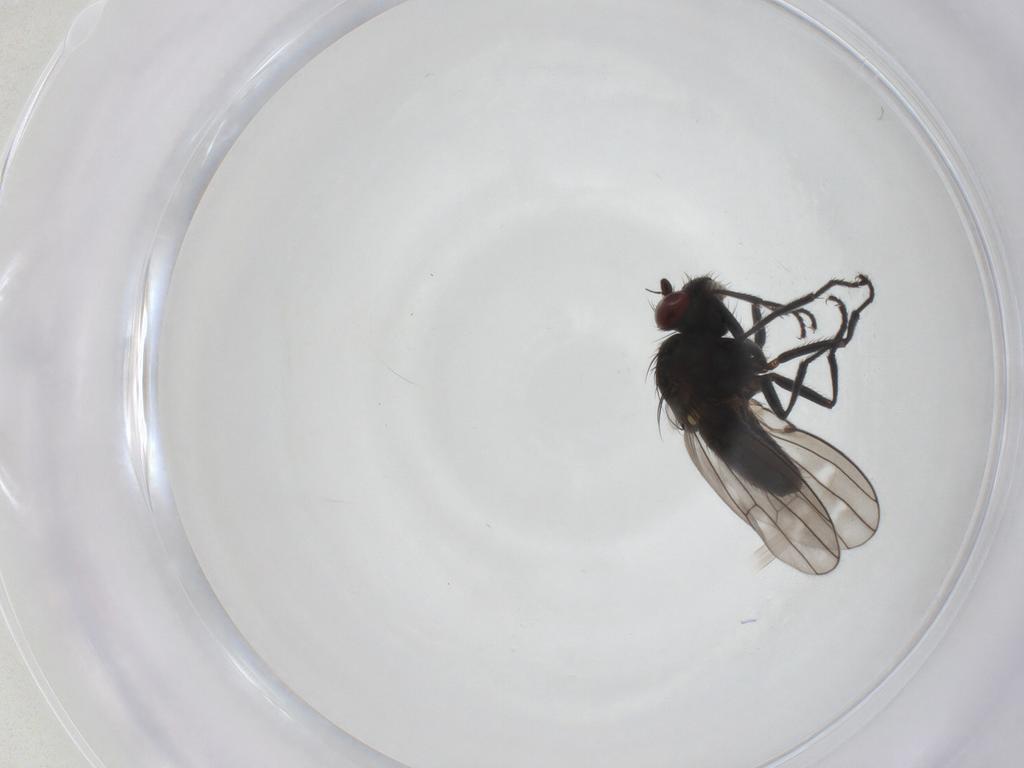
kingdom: Animalia
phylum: Arthropoda
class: Insecta
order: Diptera
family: Ephydridae
